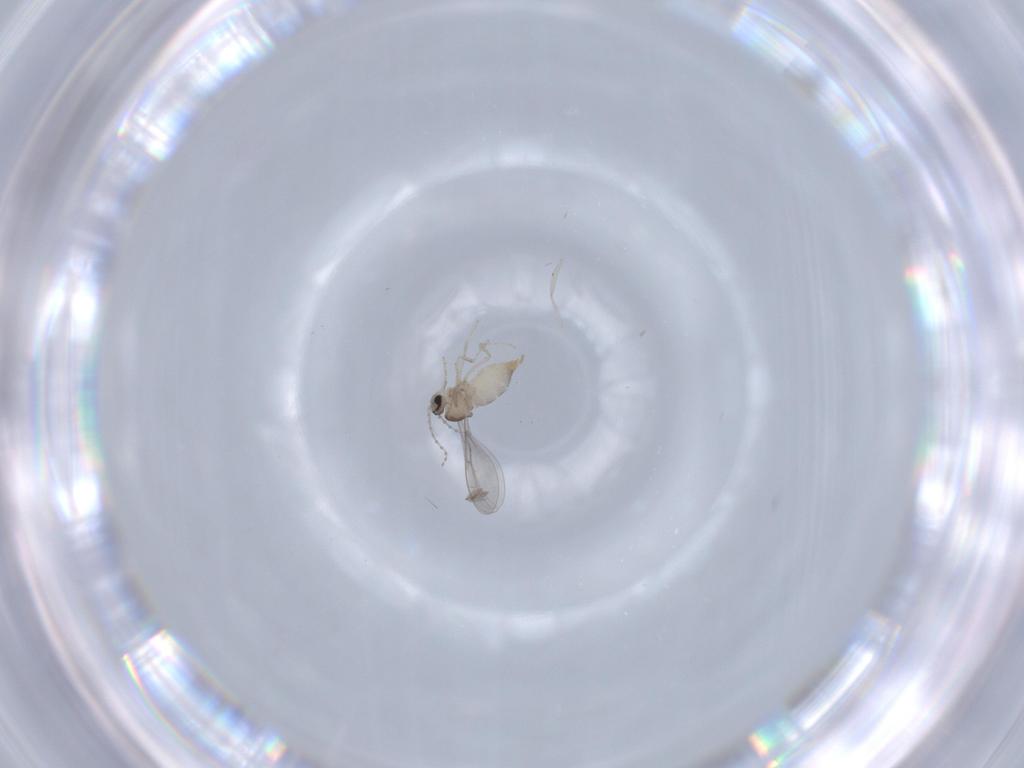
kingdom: Animalia
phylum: Arthropoda
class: Insecta
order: Diptera
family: Cecidomyiidae
